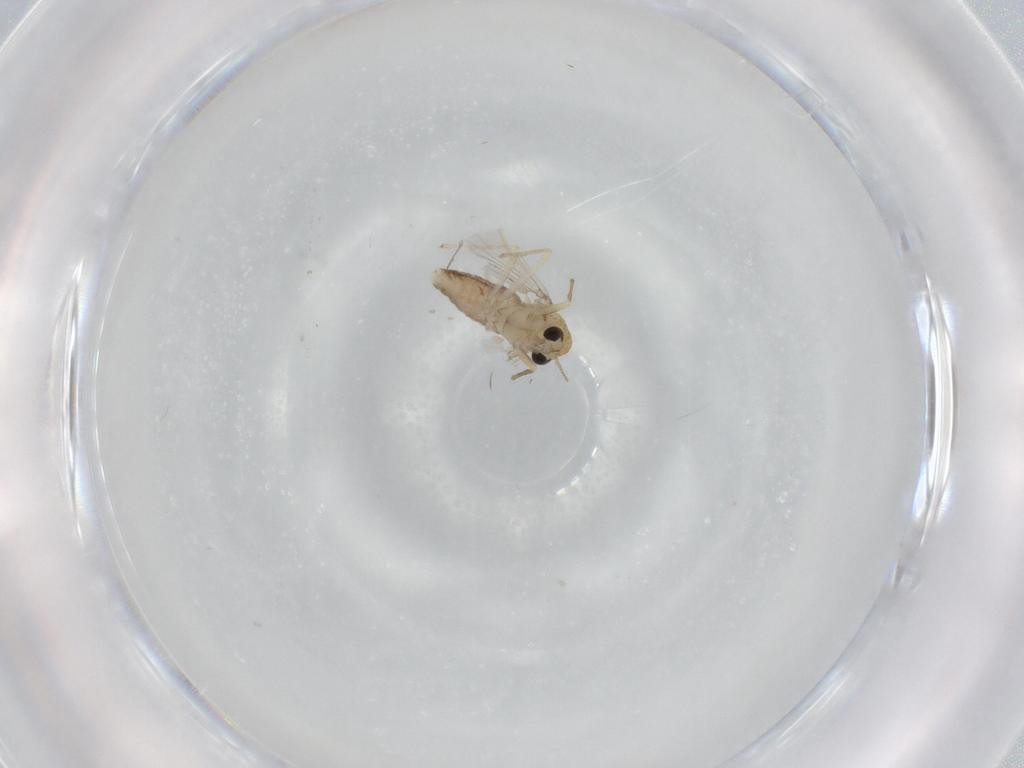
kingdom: Animalia
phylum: Arthropoda
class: Insecta
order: Diptera
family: Chironomidae
